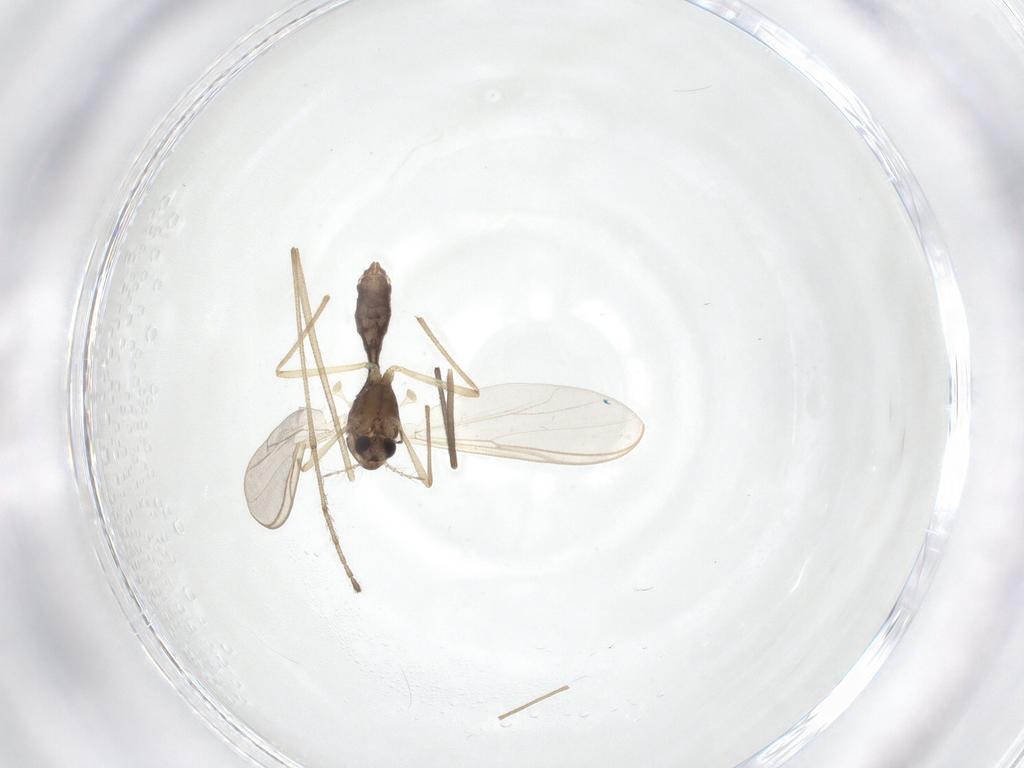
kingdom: Animalia
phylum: Arthropoda
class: Insecta
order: Diptera
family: Chironomidae
